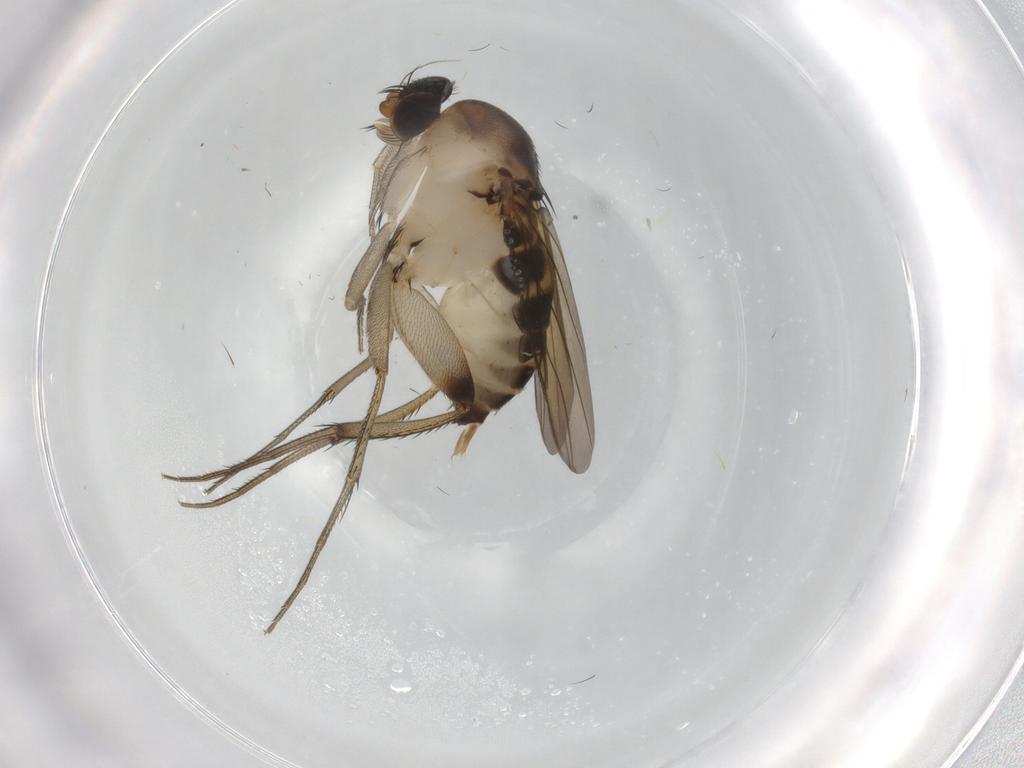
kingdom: Animalia
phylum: Arthropoda
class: Insecta
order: Diptera
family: Phoridae
